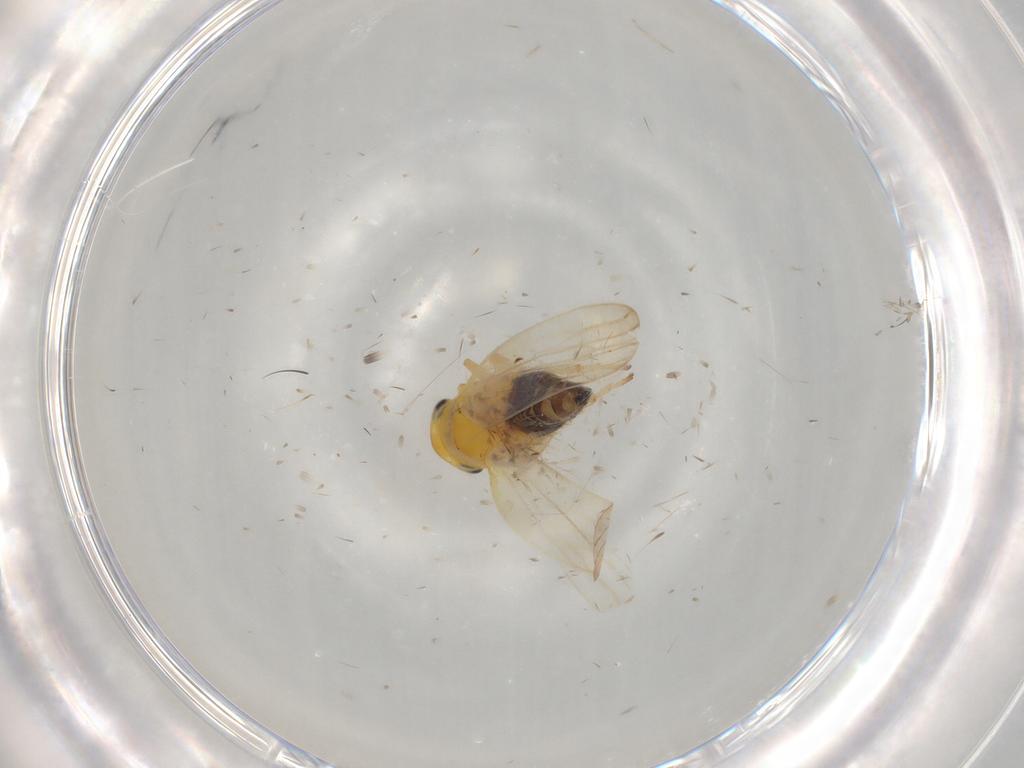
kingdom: Animalia
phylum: Arthropoda
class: Insecta
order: Hemiptera
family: Cicadellidae
